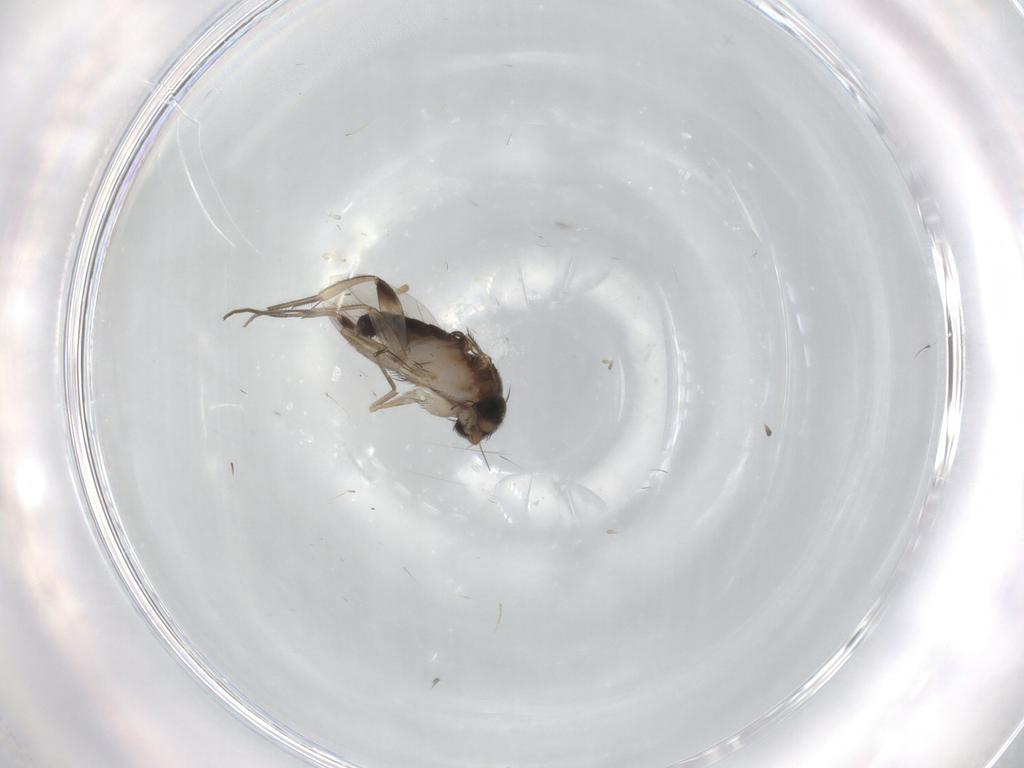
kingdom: Animalia
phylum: Arthropoda
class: Insecta
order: Diptera
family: Phoridae
